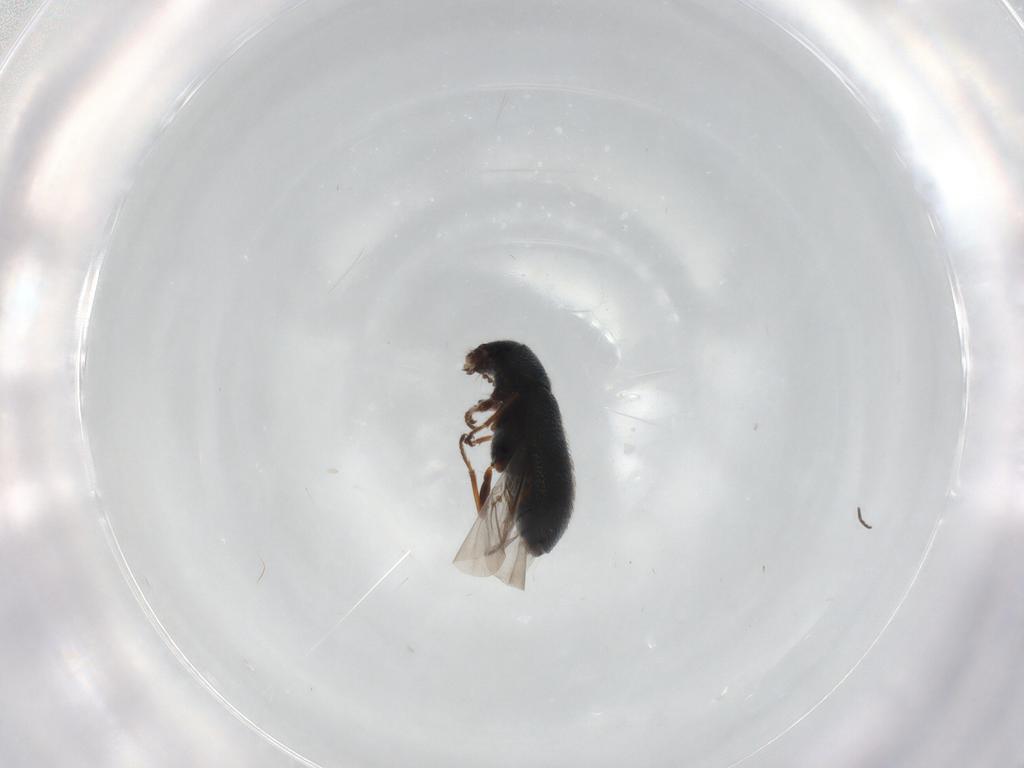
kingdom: Animalia
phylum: Arthropoda
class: Insecta
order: Coleoptera
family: Melyridae
